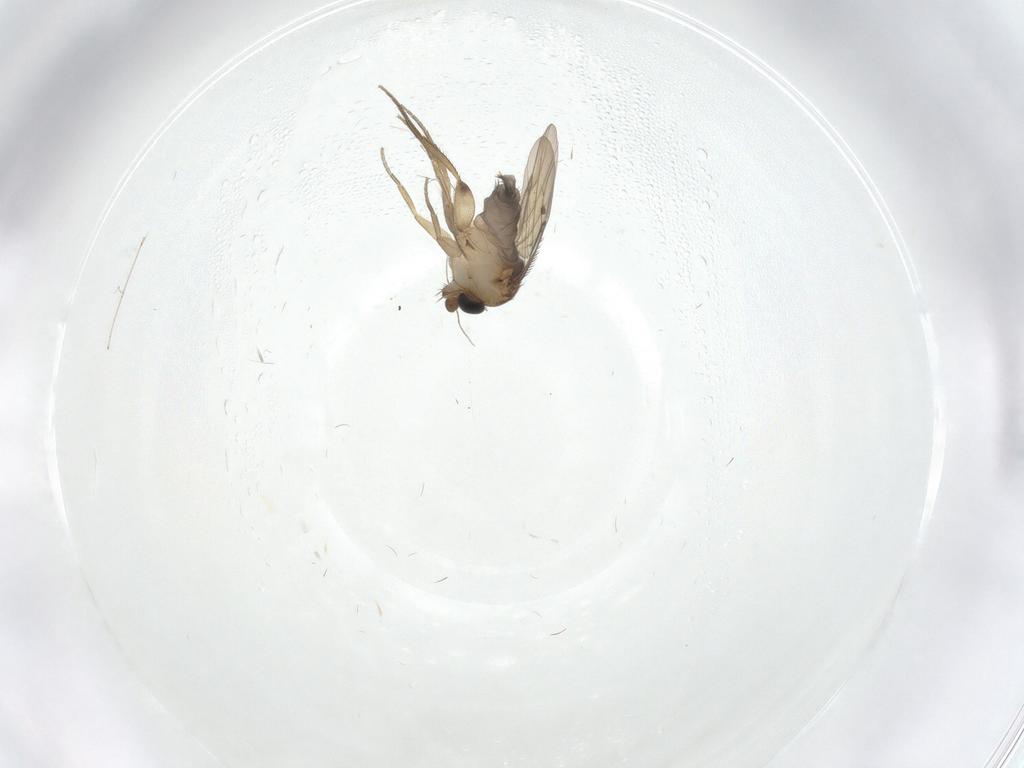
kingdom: Animalia
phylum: Arthropoda
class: Insecta
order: Diptera
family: Phoridae
